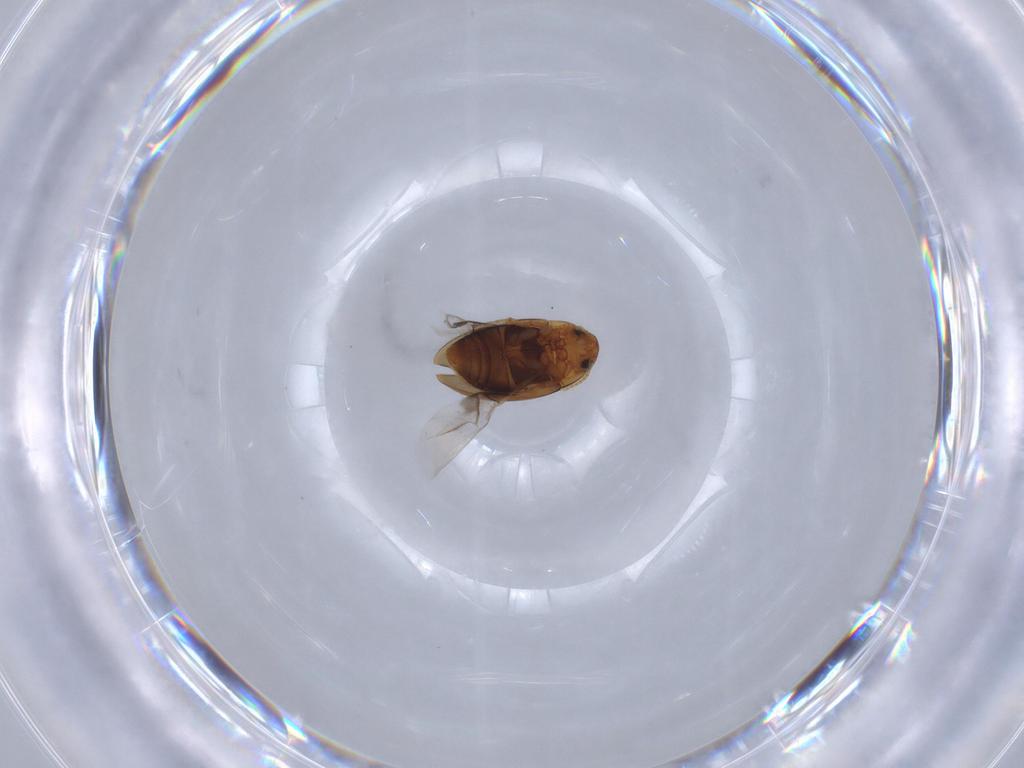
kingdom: Animalia
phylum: Arthropoda
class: Insecta
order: Coleoptera
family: Noteridae
